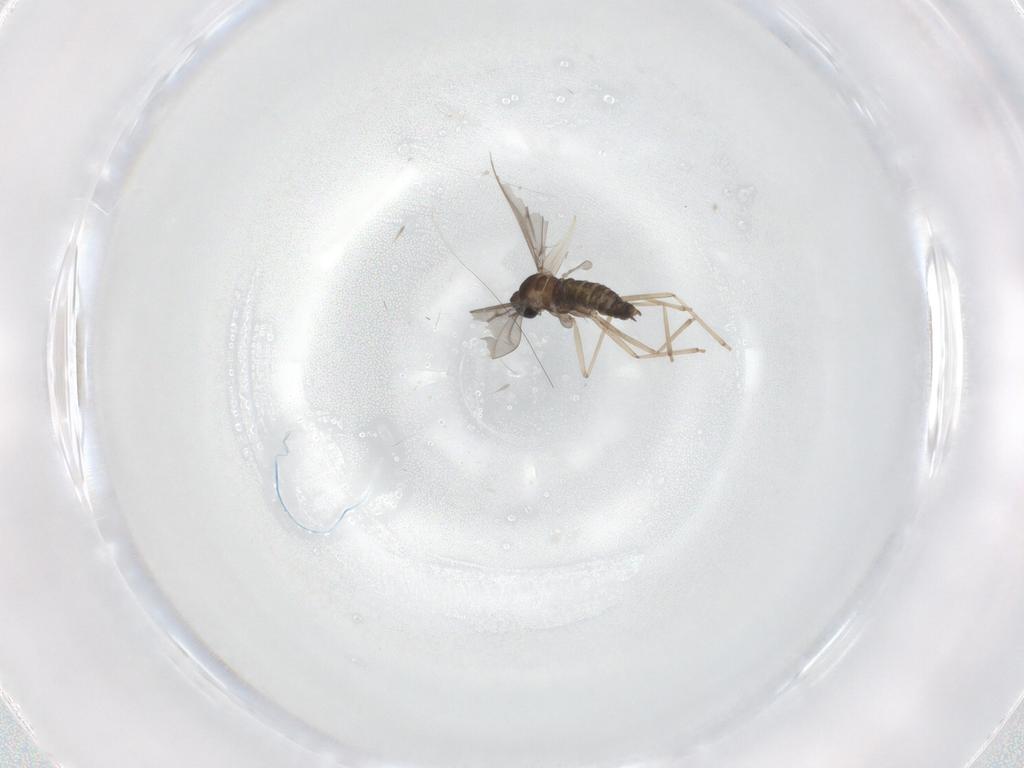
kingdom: Animalia
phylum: Arthropoda
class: Insecta
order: Diptera
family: Cecidomyiidae
